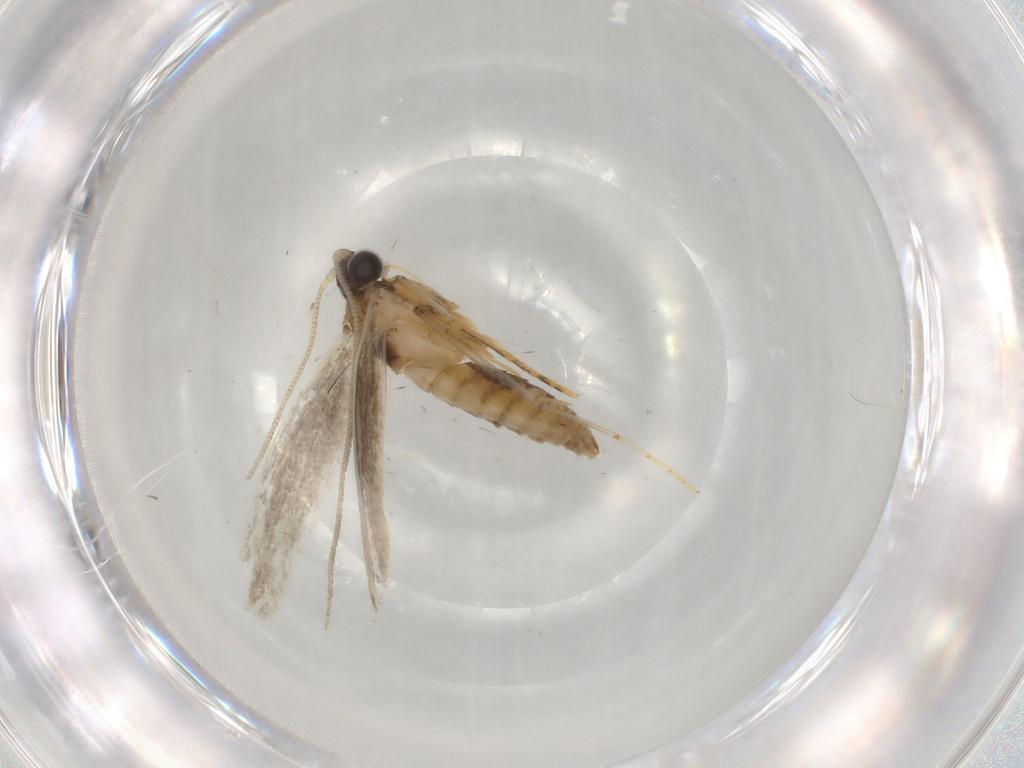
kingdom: Animalia
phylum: Arthropoda
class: Insecta
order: Lepidoptera
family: Tineidae
